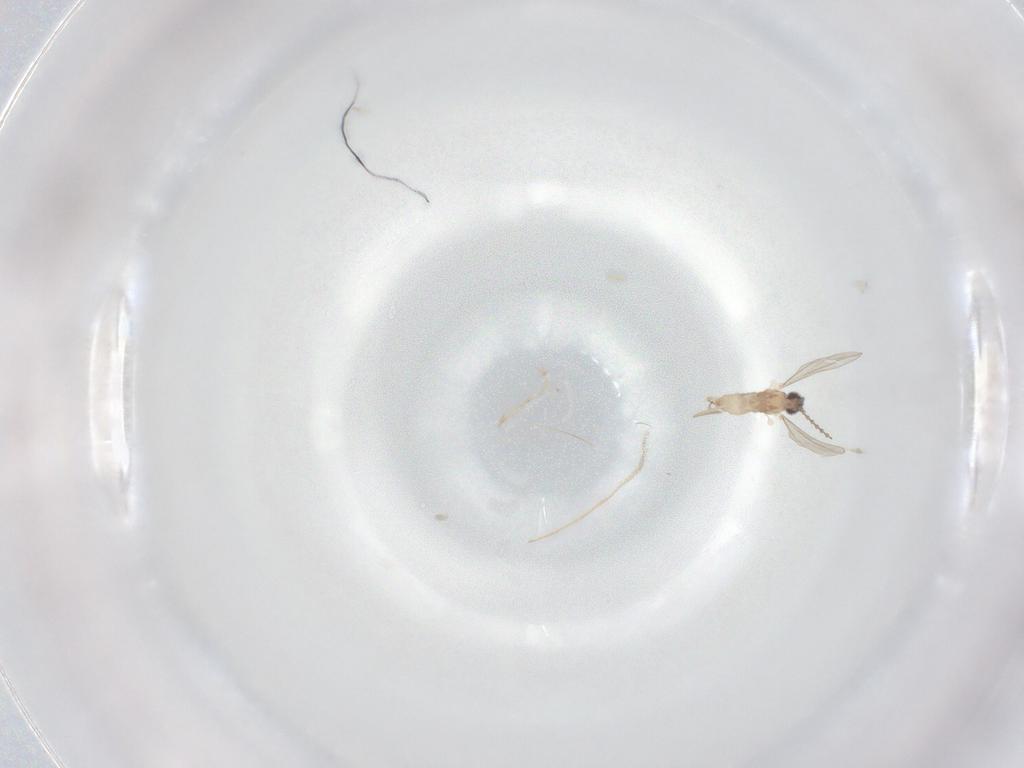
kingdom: Animalia
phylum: Arthropoda
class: Insecta
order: Diptera
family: Cecidomyiidae
